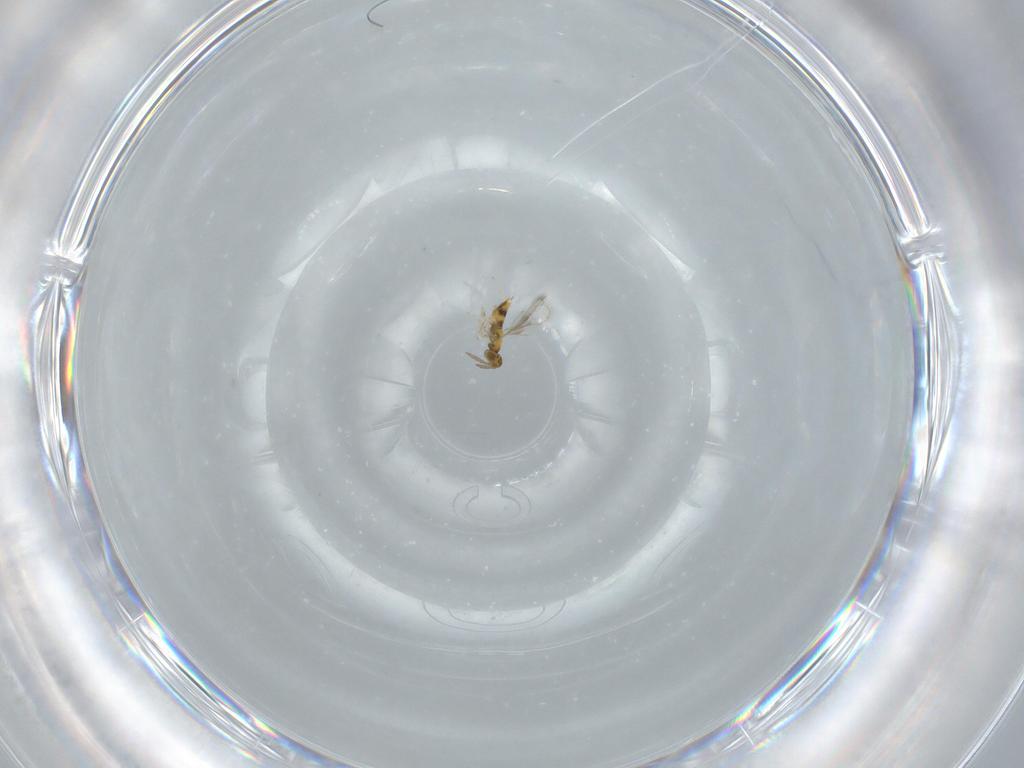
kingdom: Animalia
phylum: Arthropoda
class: Insecta
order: Hymenoptera
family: Aphelinidae
